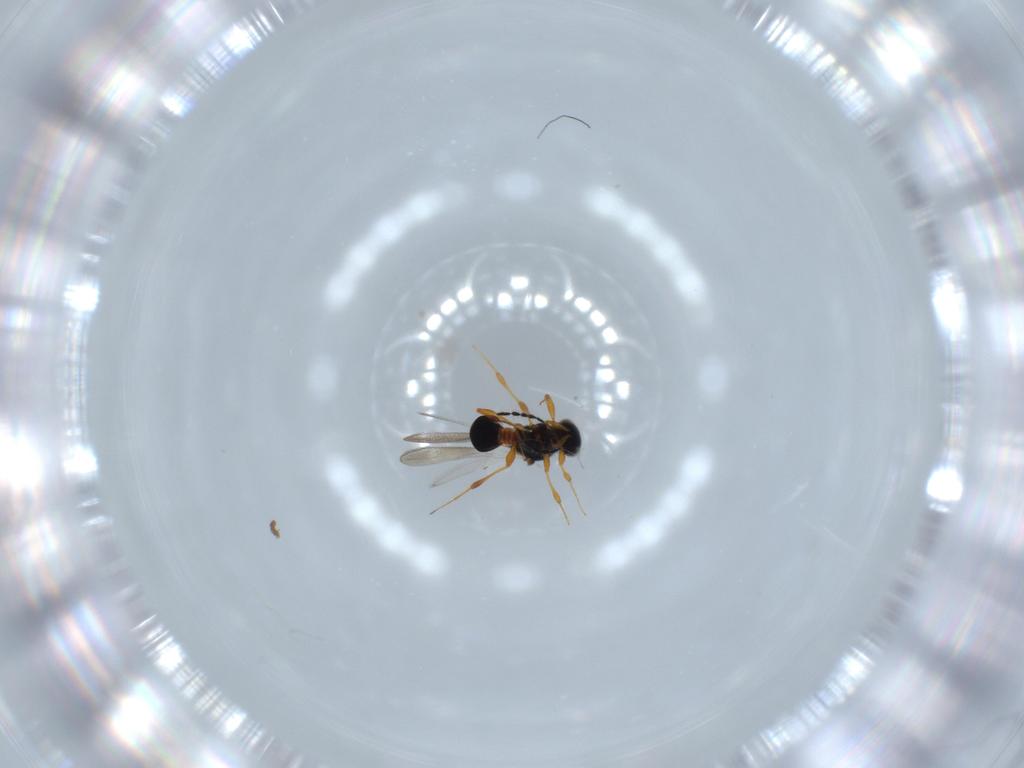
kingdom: Animalia
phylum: Arthropoda
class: Insecta
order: Hymenoptera
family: Platygastridae
